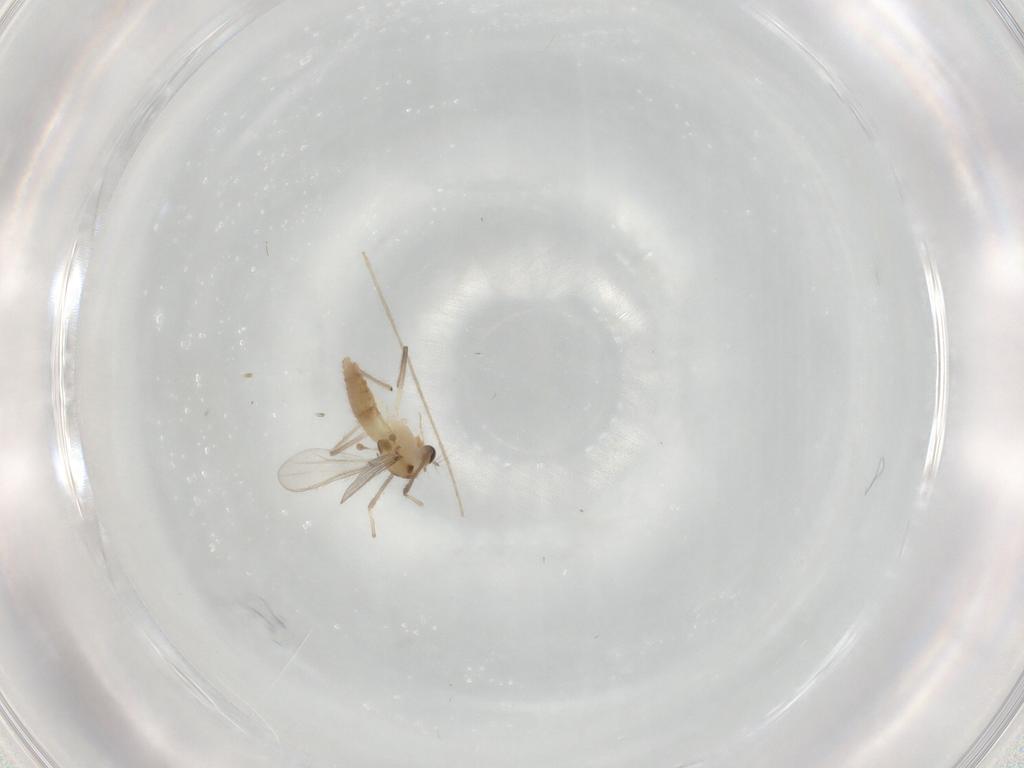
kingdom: Animalia
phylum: Arthropoda
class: Insecta
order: Diptera
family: Chironomidae
